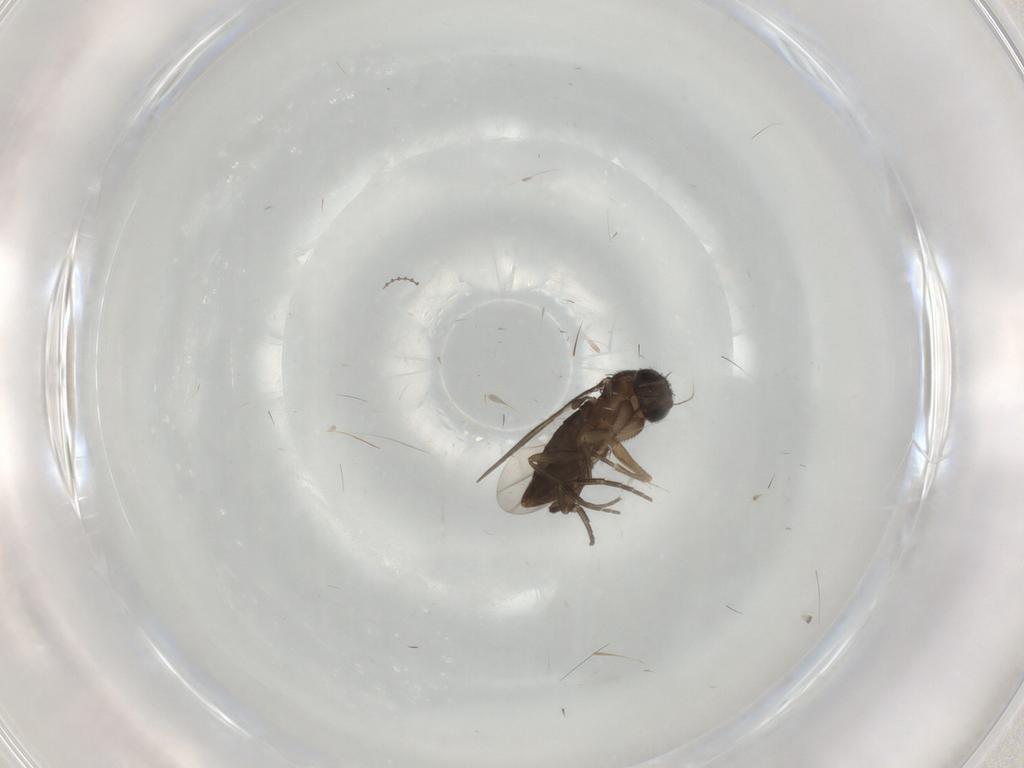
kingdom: Animalia
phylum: Arthropoda
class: Insecta
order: Diptera
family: Phoridae
